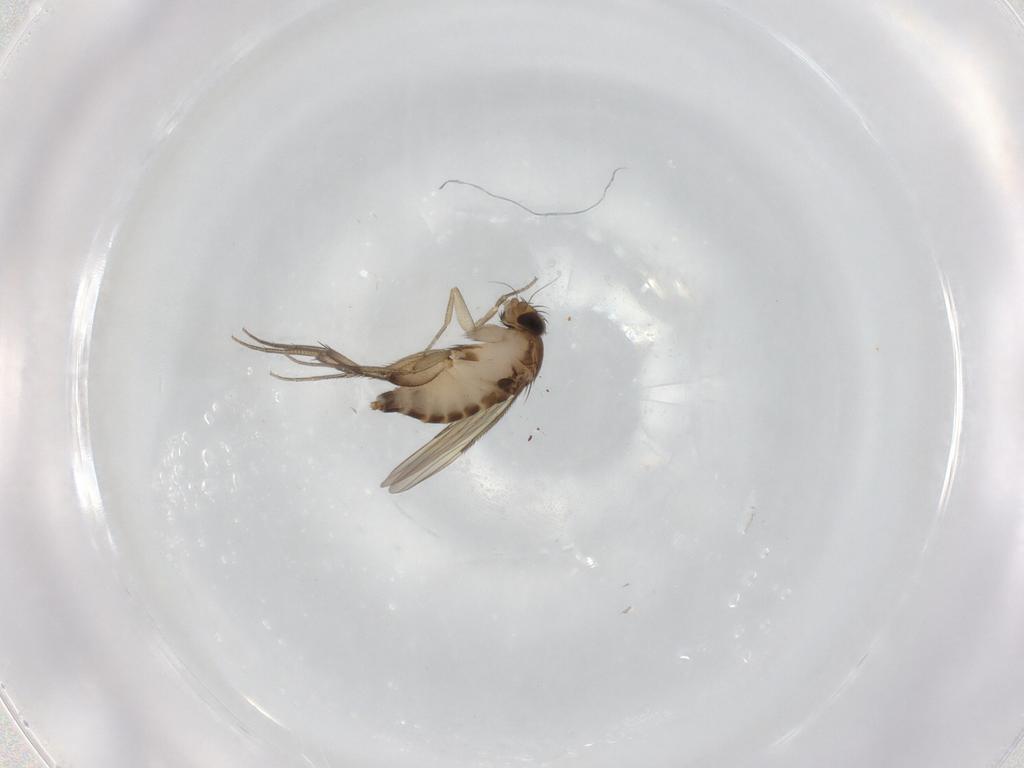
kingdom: Animalia
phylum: Arthropoda
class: Insecta
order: Diptera
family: Phoridae
